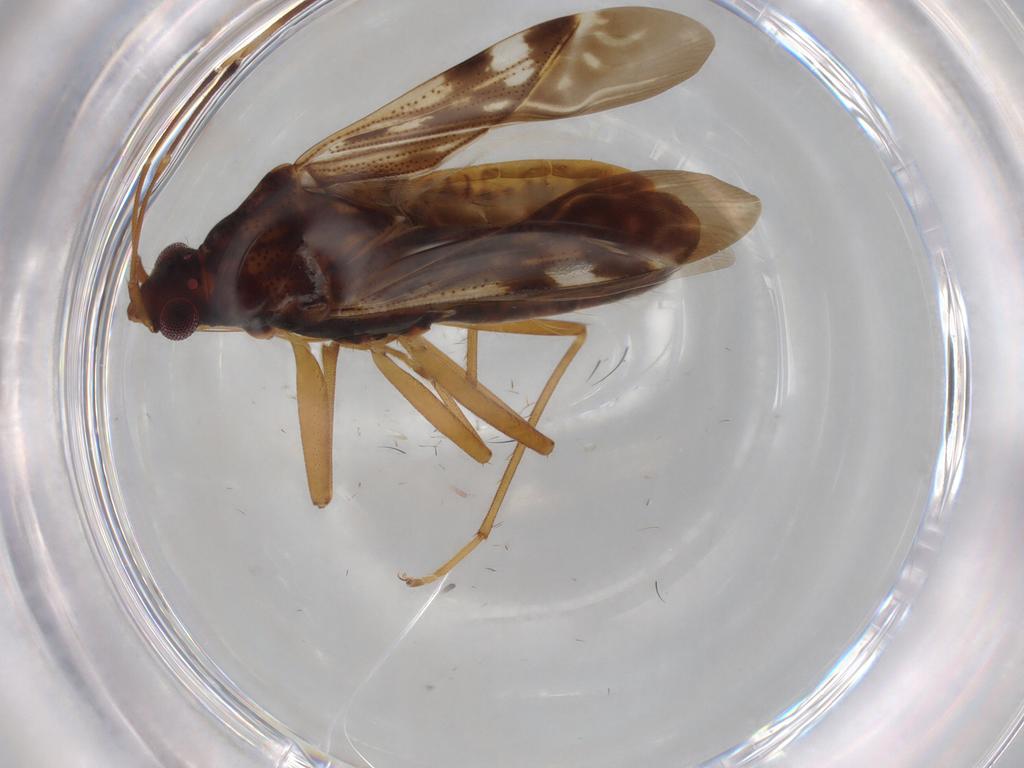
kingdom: Animalia
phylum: Arthropoda
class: Insecta
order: Hemiptera
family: Rhyparochromidae
